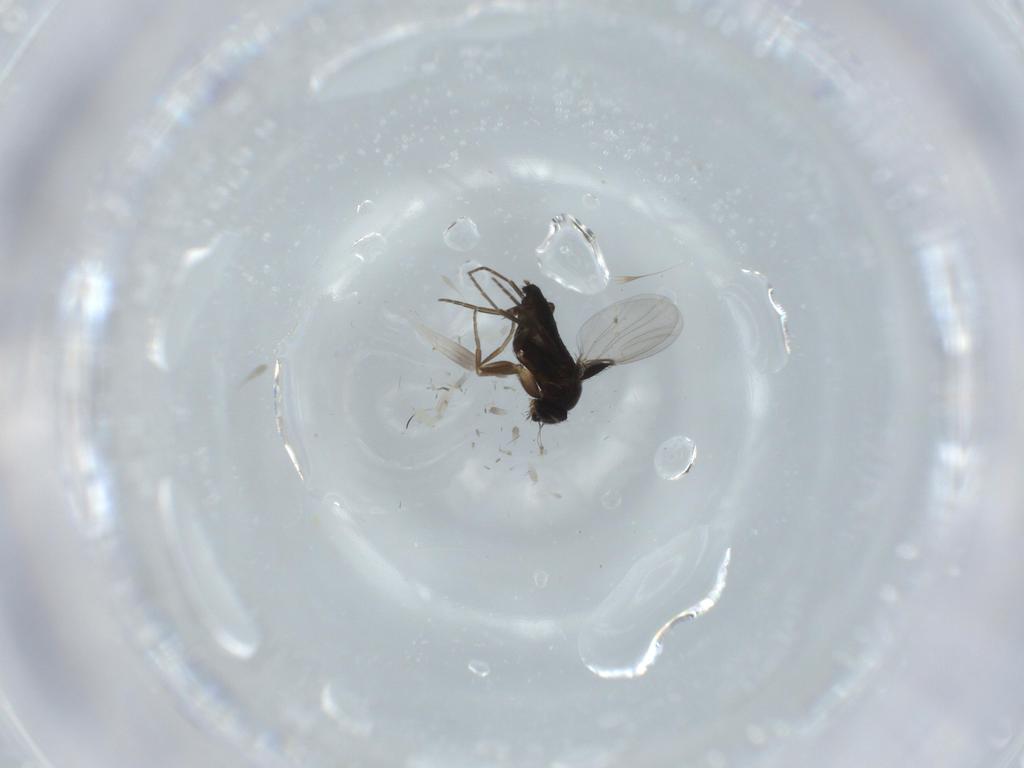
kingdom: Animalia
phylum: Arthropoda
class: Insecta
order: Diptera
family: Phoridae
